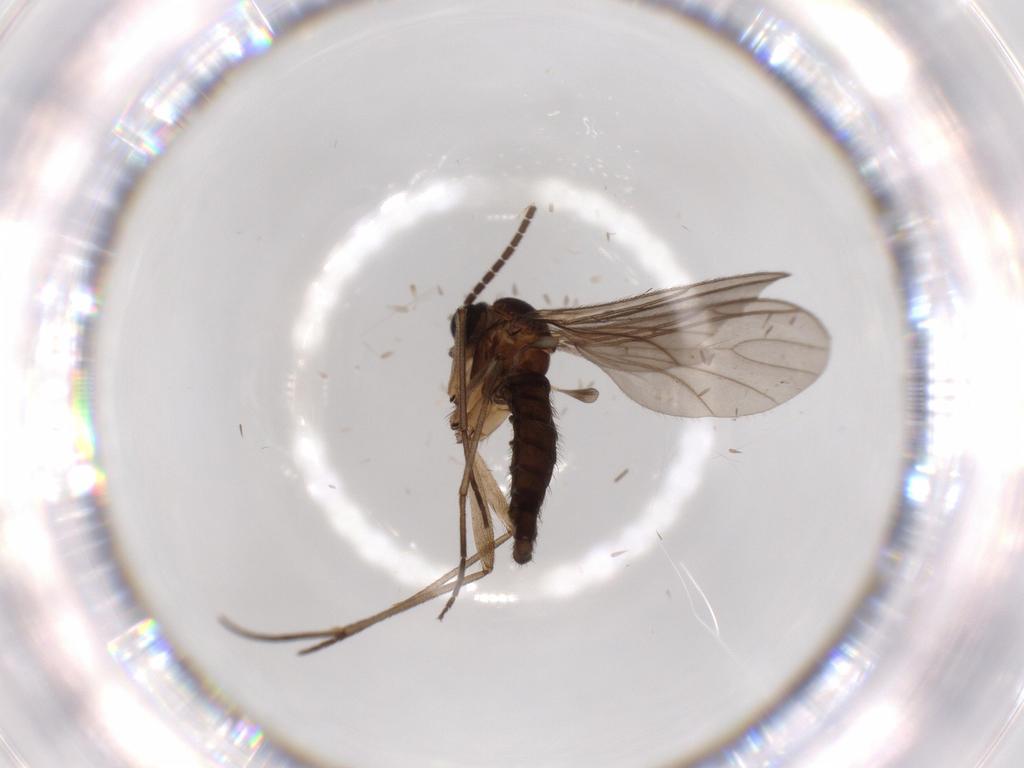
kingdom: Animalia
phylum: Arthropoda
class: Insecta
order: Diptera
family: Sciaridae
